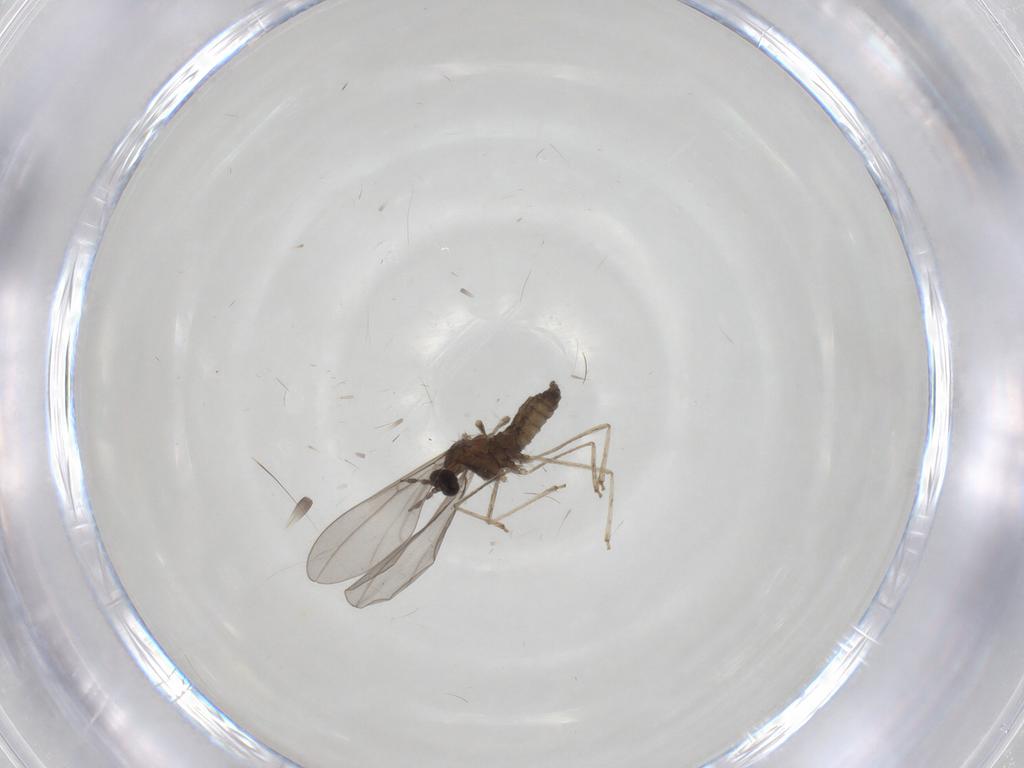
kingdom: Animalia
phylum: Arthropoda
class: Insecta
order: Diptera
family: Cecidomyiidae
